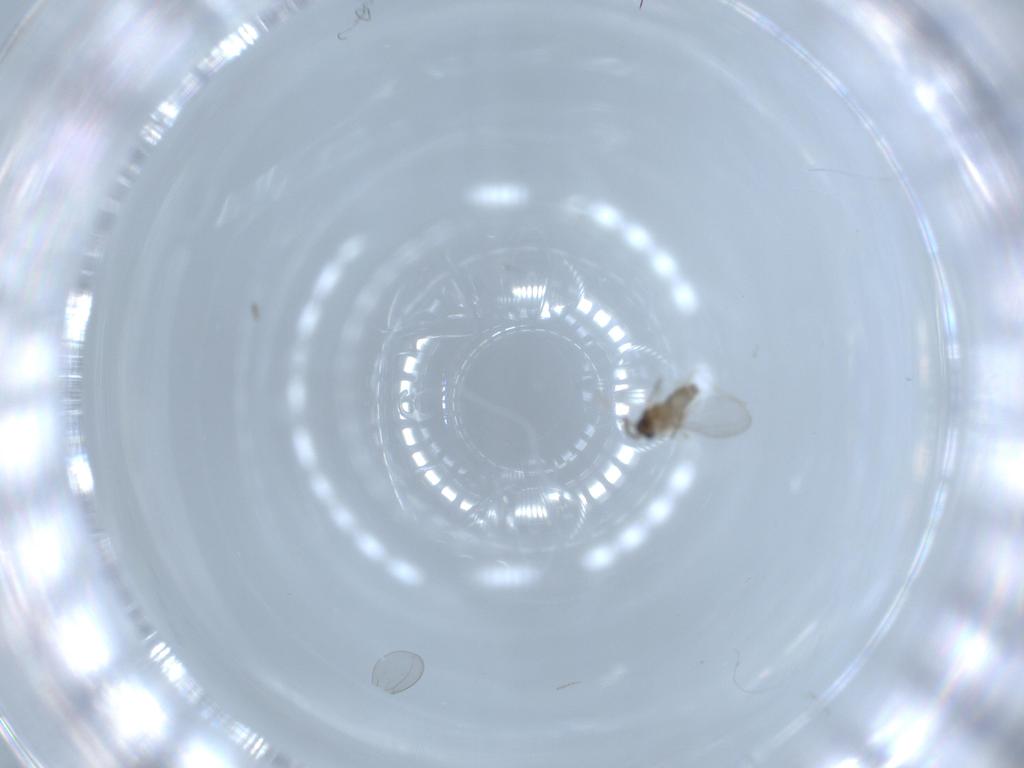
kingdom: Animalia
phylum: Arthropoda
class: Insecta
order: Diptera
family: Cecidomyiidae
